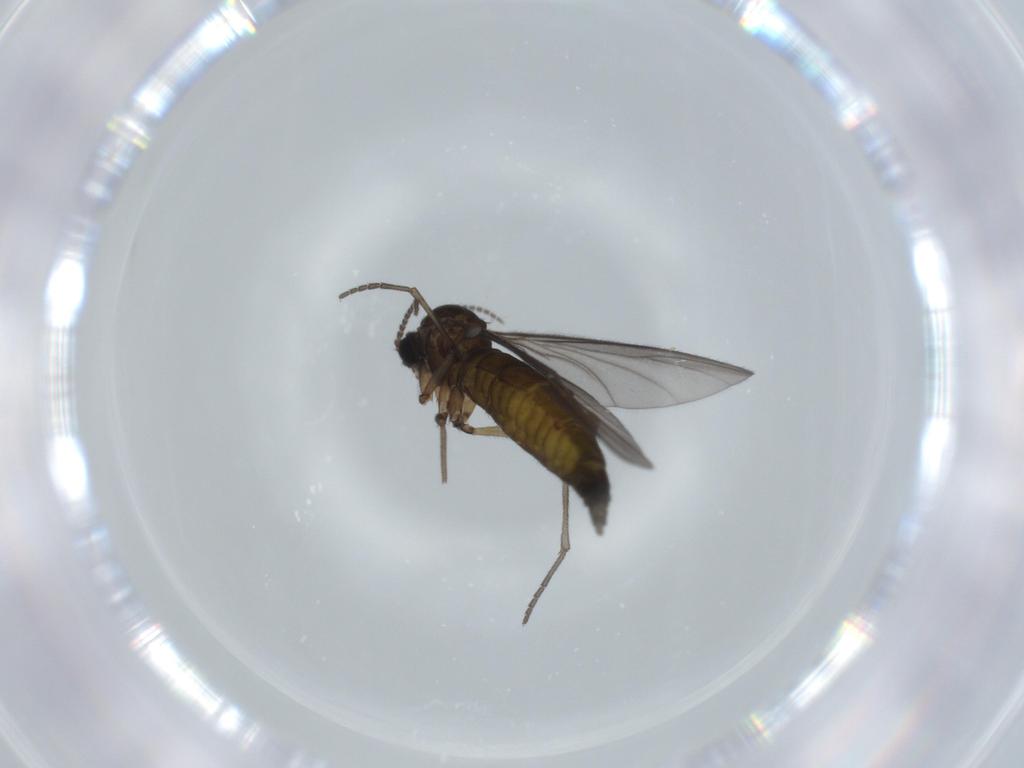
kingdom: Animalia
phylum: Arthropoda
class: Insecta
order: Diptera
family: Sciaridae
